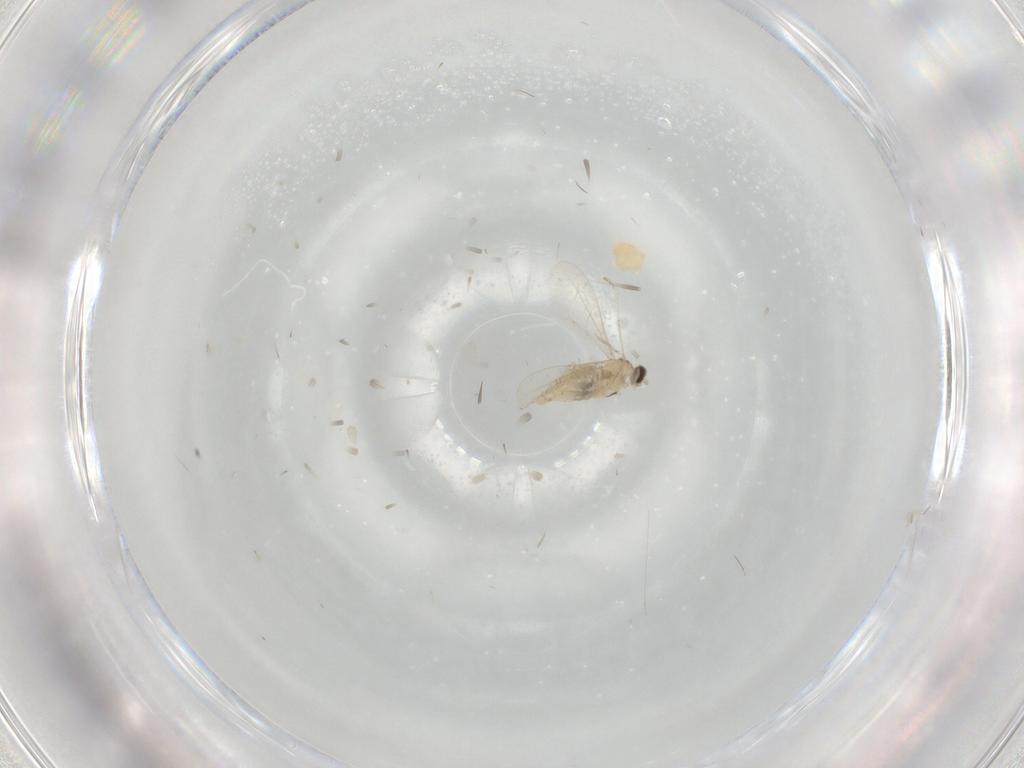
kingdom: Animalia
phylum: Arthropoda
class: Insecta
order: Diptera
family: Cecidomyiidae
